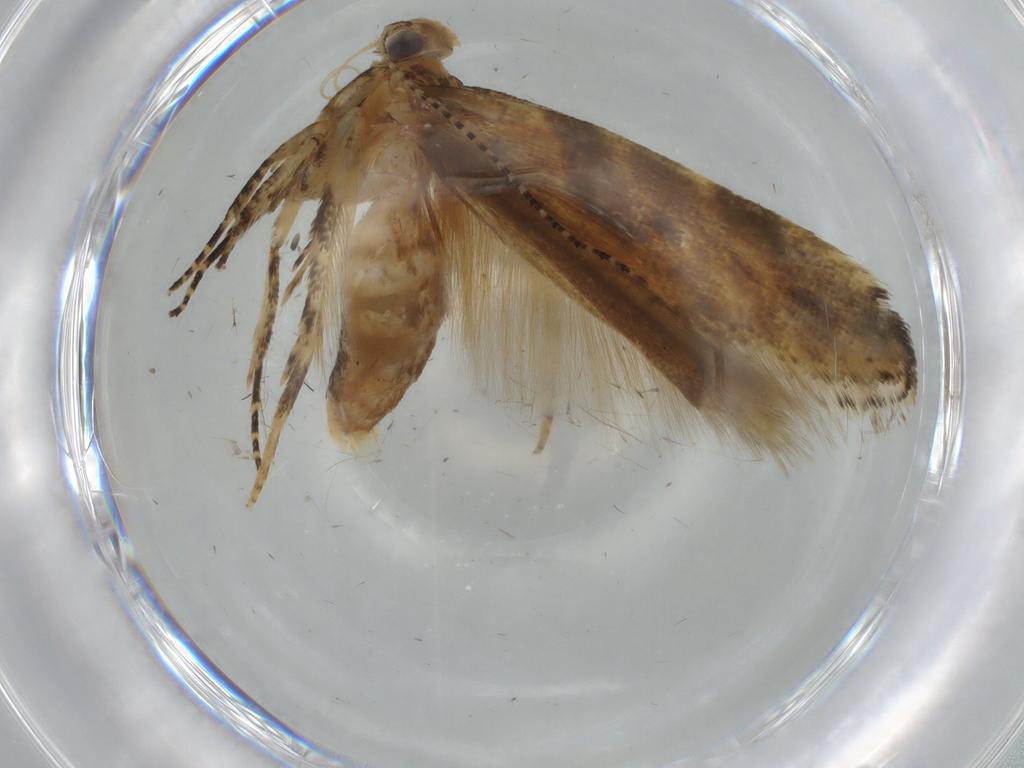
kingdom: Animalia
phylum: Arthropoda
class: Insecta
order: Lepidoptera
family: Gelechiidae
